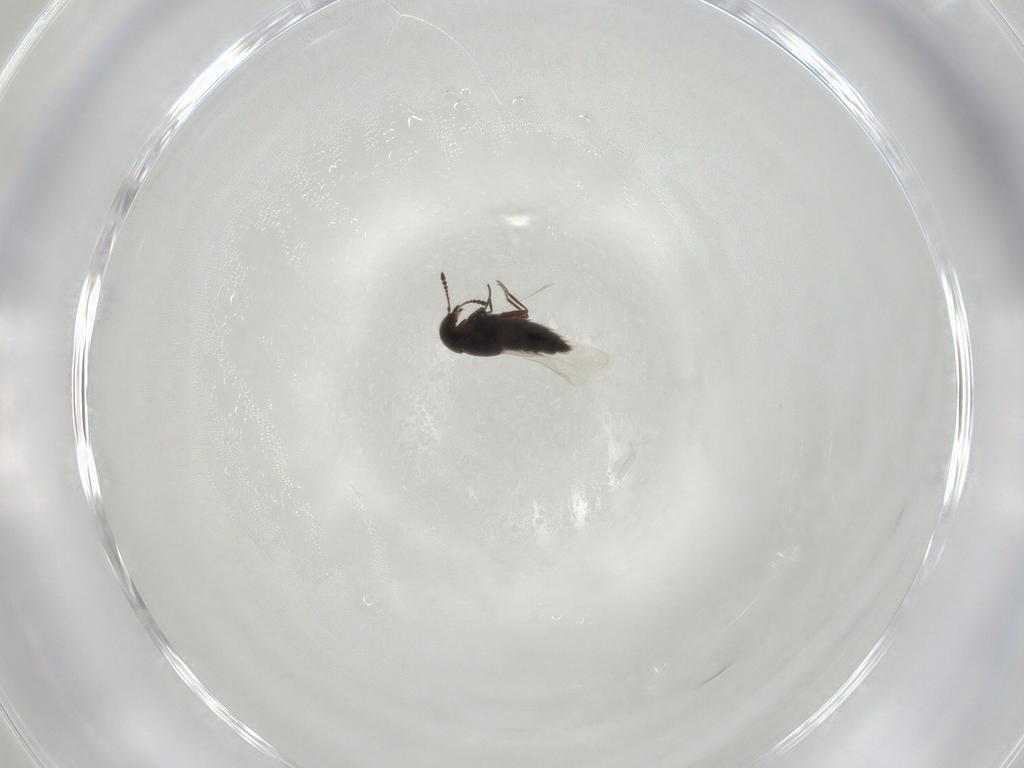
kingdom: Animalia
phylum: Arthropoda
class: Insecta
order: Coleoptera
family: Staphylinidae
